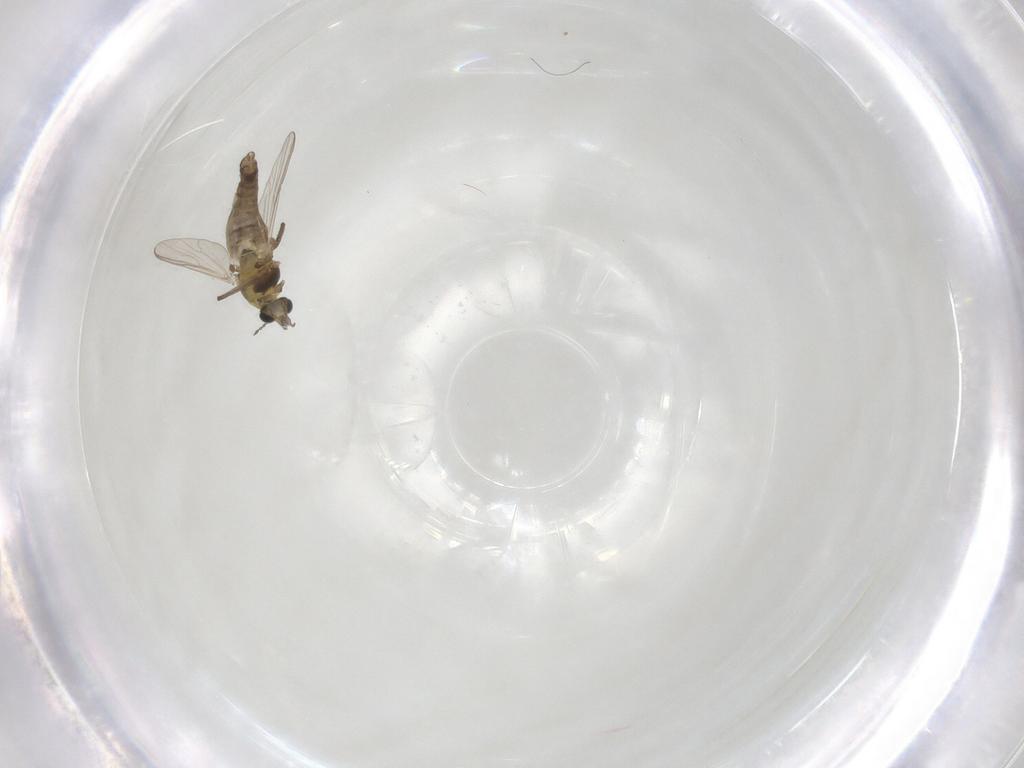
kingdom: Animalia
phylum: Arthropoda
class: Insecta
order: Diptera
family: Chironomidae
